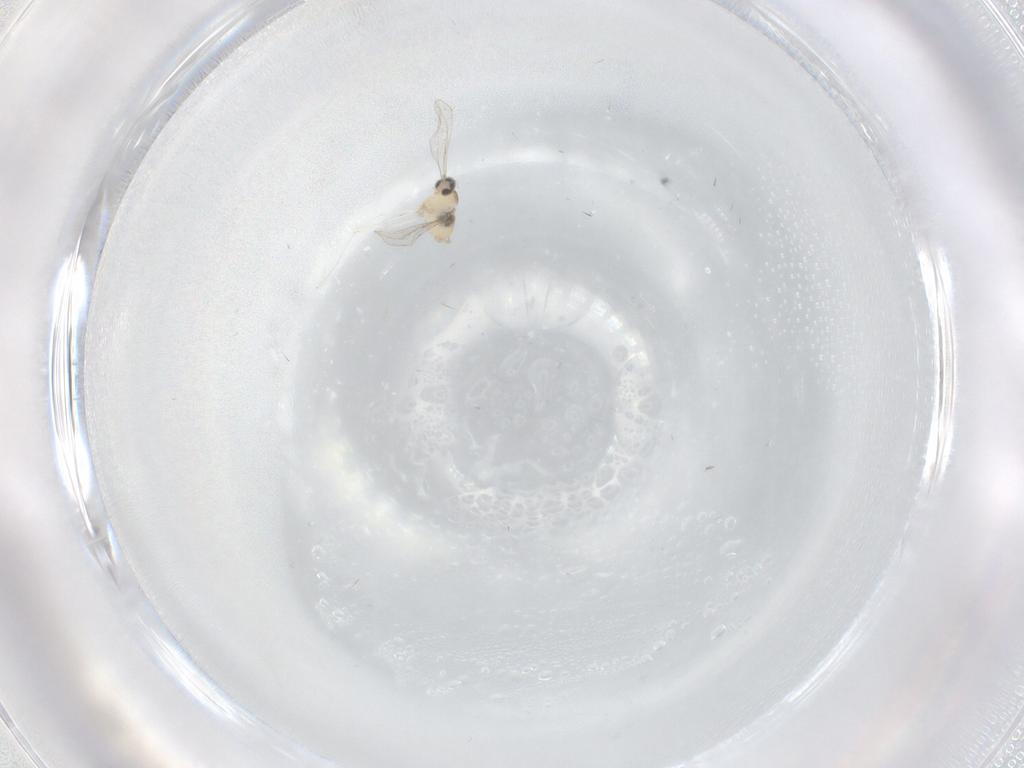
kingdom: Animalia
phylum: Arthropoda
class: Insecta
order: Diptera
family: Cecidomyiidae
